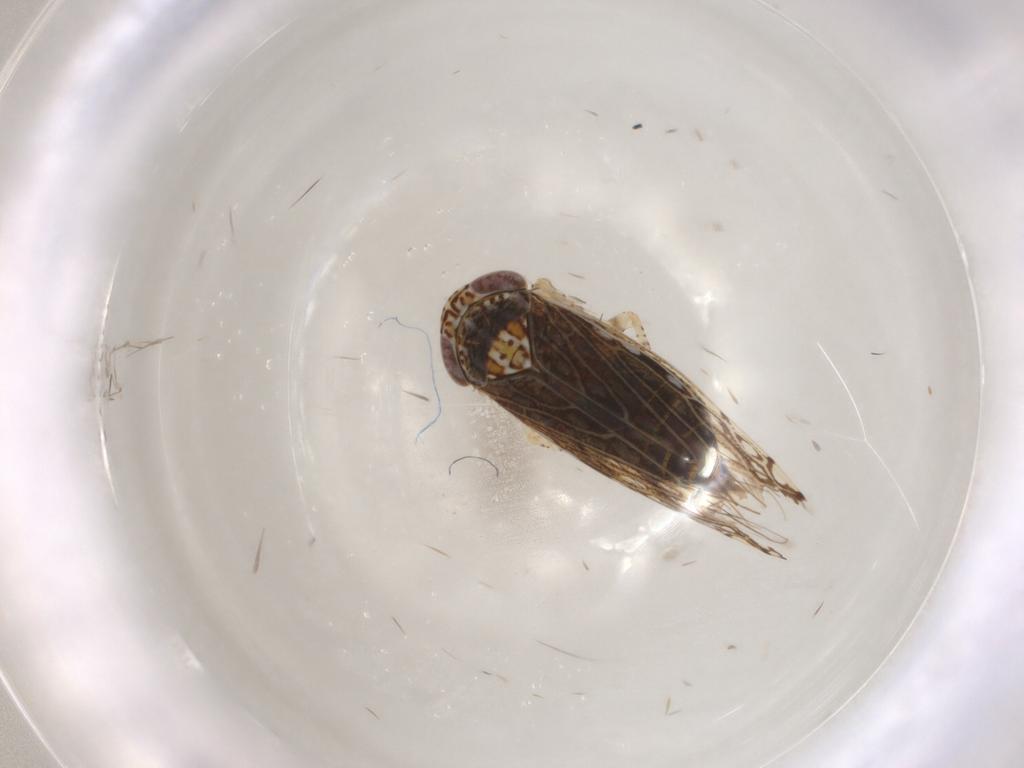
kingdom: Animalia
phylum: Arthropoda
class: Insecta
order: Hemiptera
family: Cicadellidae
